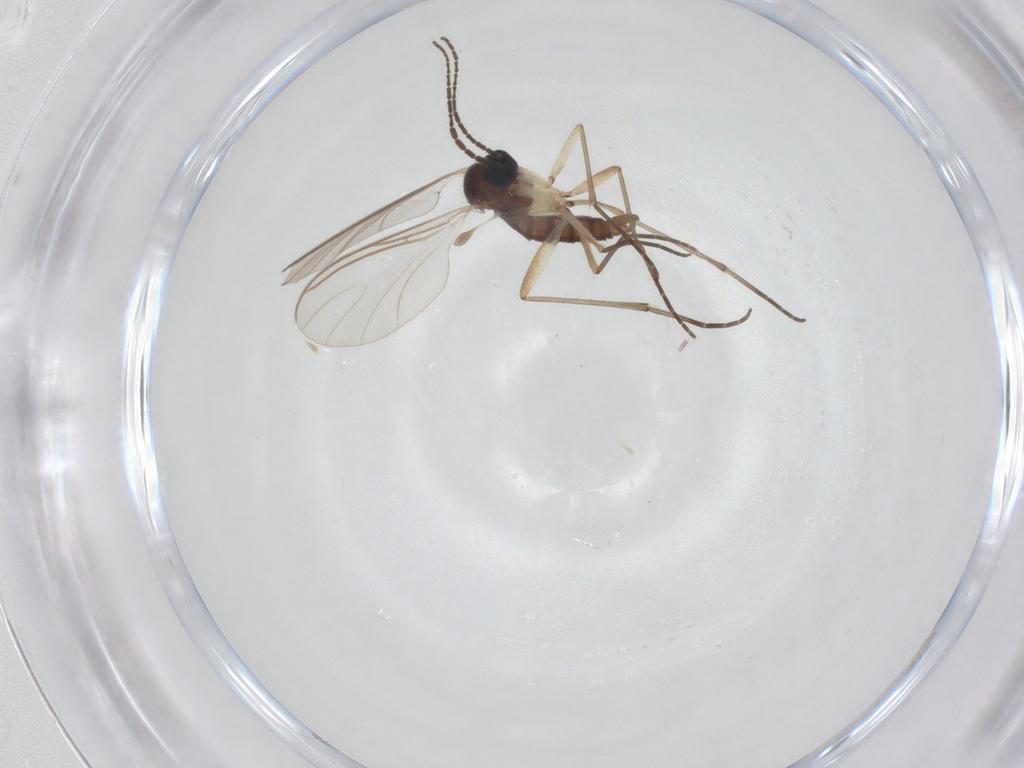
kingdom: Animalia
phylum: Arthropoda
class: Insecta
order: Diptera
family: Sciaridae
